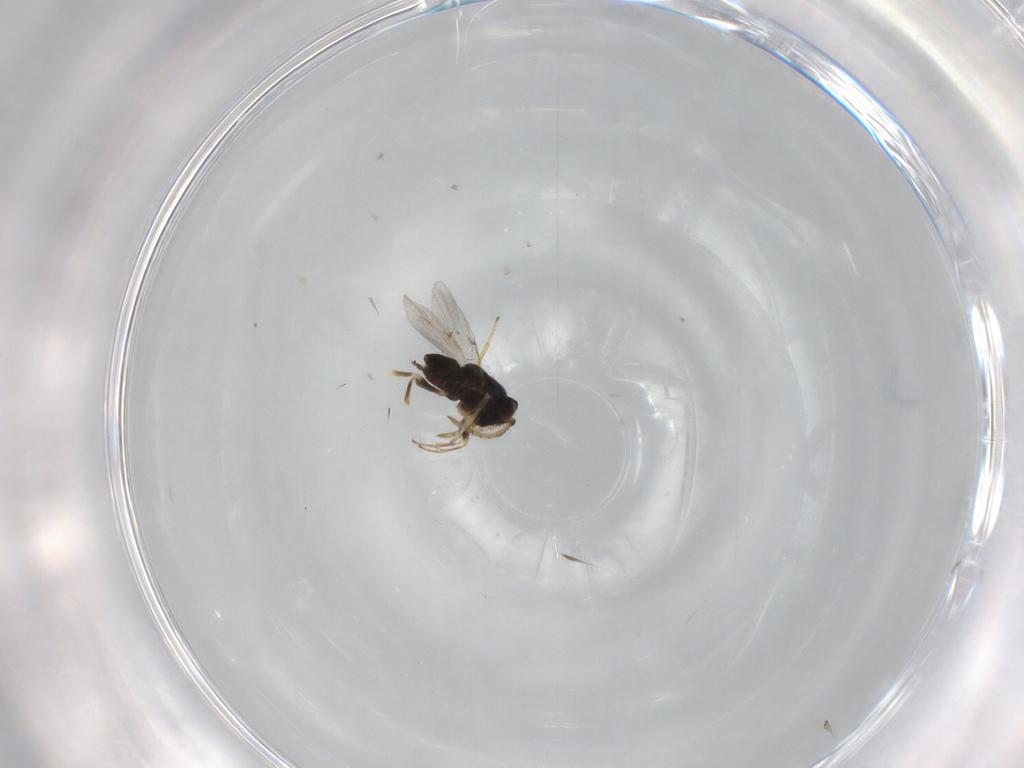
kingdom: Animalia
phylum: Arthropoda
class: Insecta
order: Hymenoptera
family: Encyrtidae
